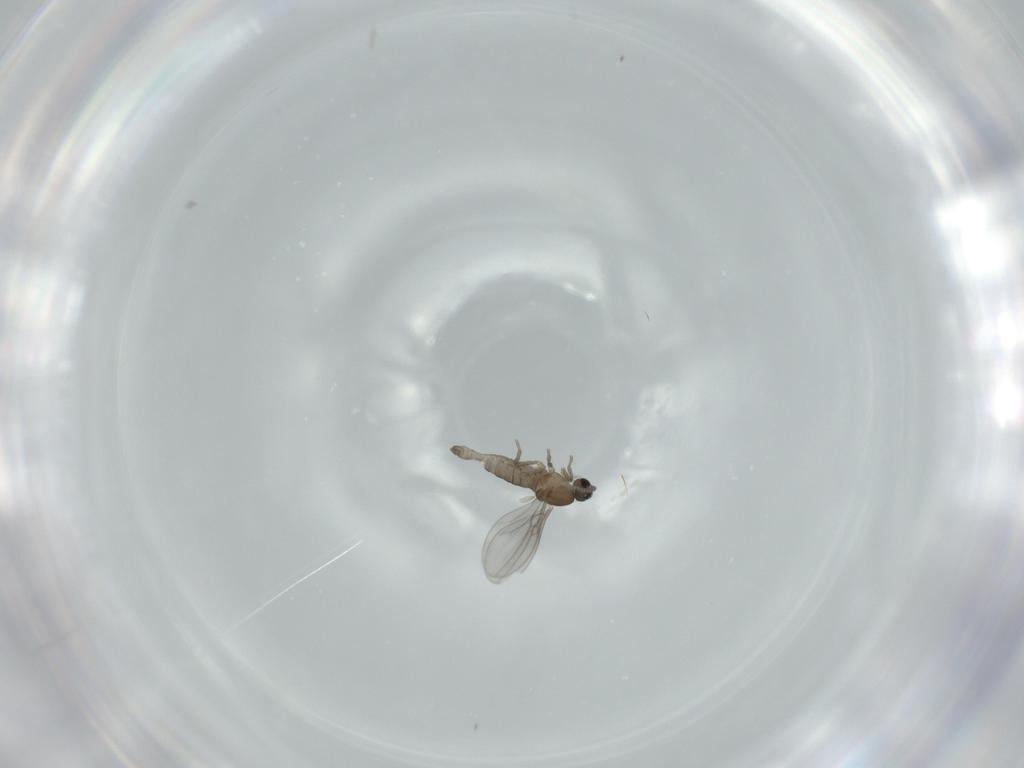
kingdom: Animalia
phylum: Arthropoda
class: Insecta
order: Diptera
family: Cecidomyiidae
